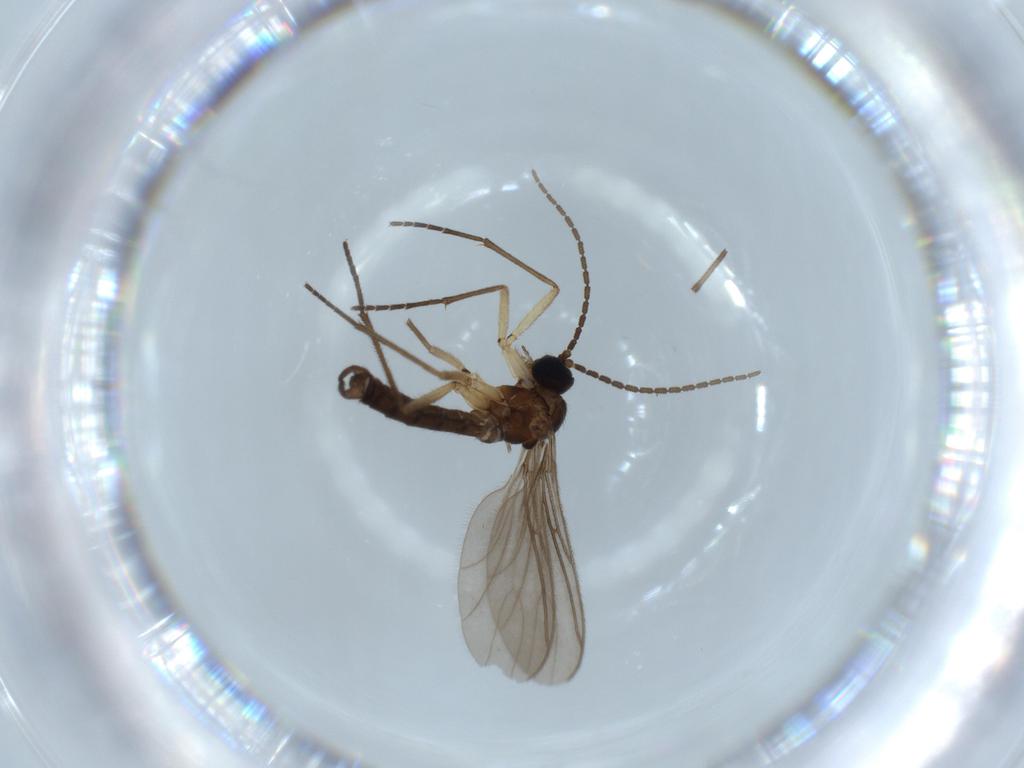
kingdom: Animalia
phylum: Arthropoda
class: Insecta
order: Diptera
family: Sciaridae
